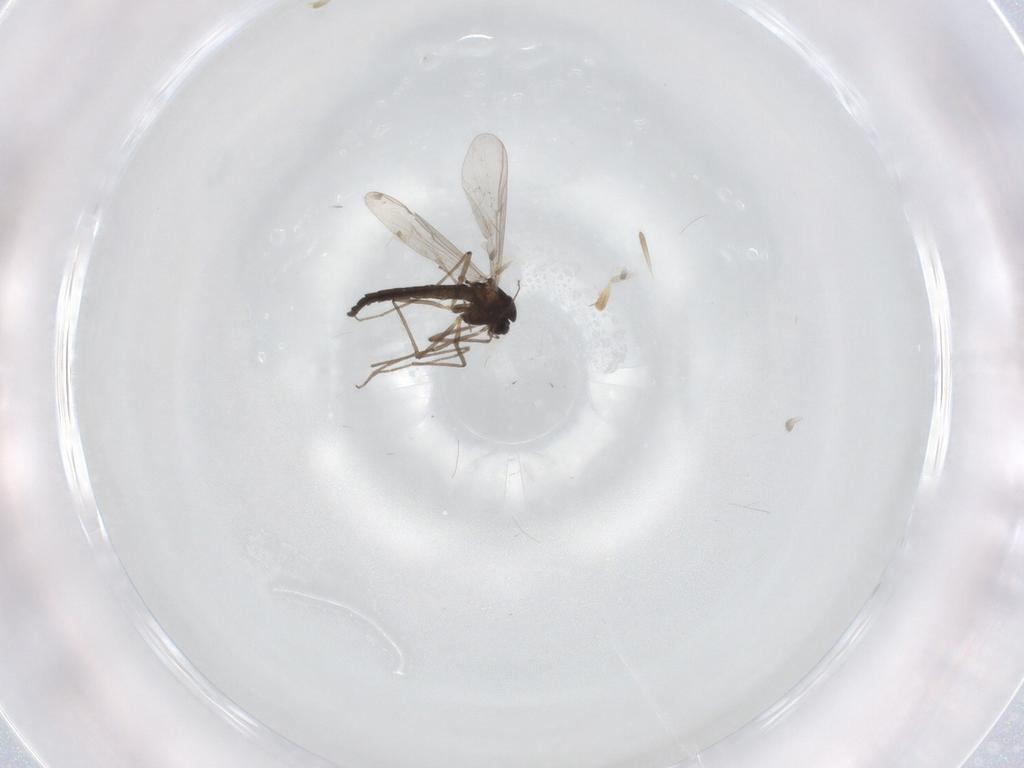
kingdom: Animalia
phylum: Arthropoda
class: Insecta
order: Diptera
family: Chironomidae
